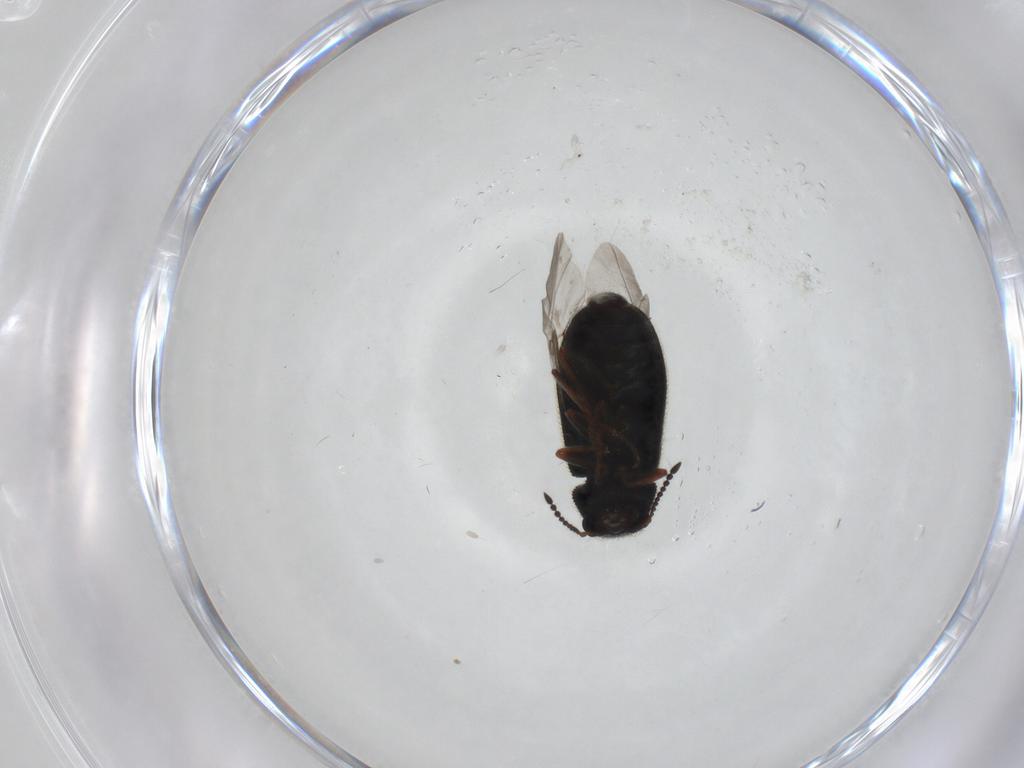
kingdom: Animalia
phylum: Arthropoda
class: Insecta
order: Coleoptera
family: Melyridae
